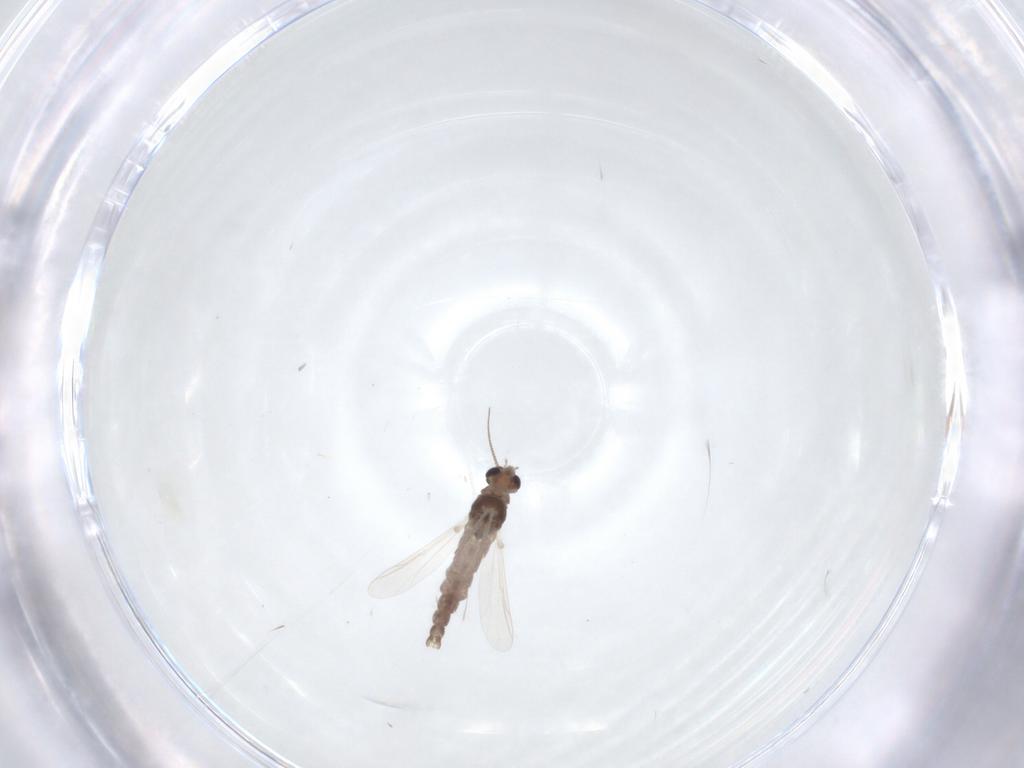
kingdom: Animalia
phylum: Arthropoda
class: Insecta
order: Diptera
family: Chironomidae
